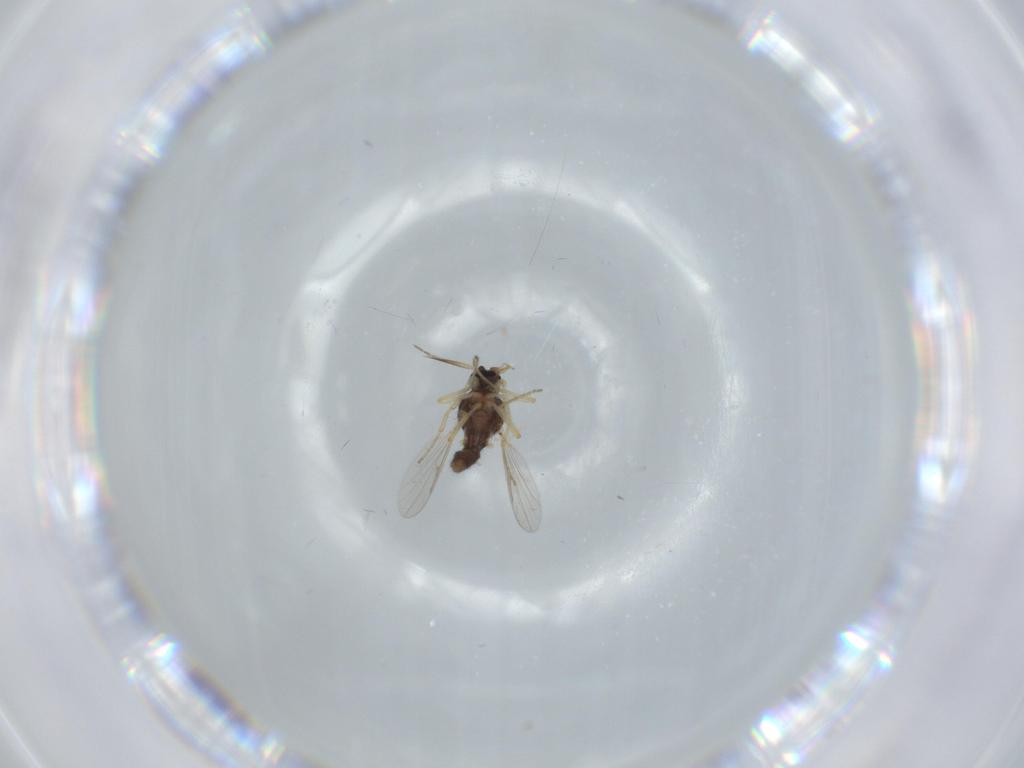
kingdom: Animalia
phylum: Arthropoda
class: Insecta
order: Diptera
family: Ceratopogonidae
